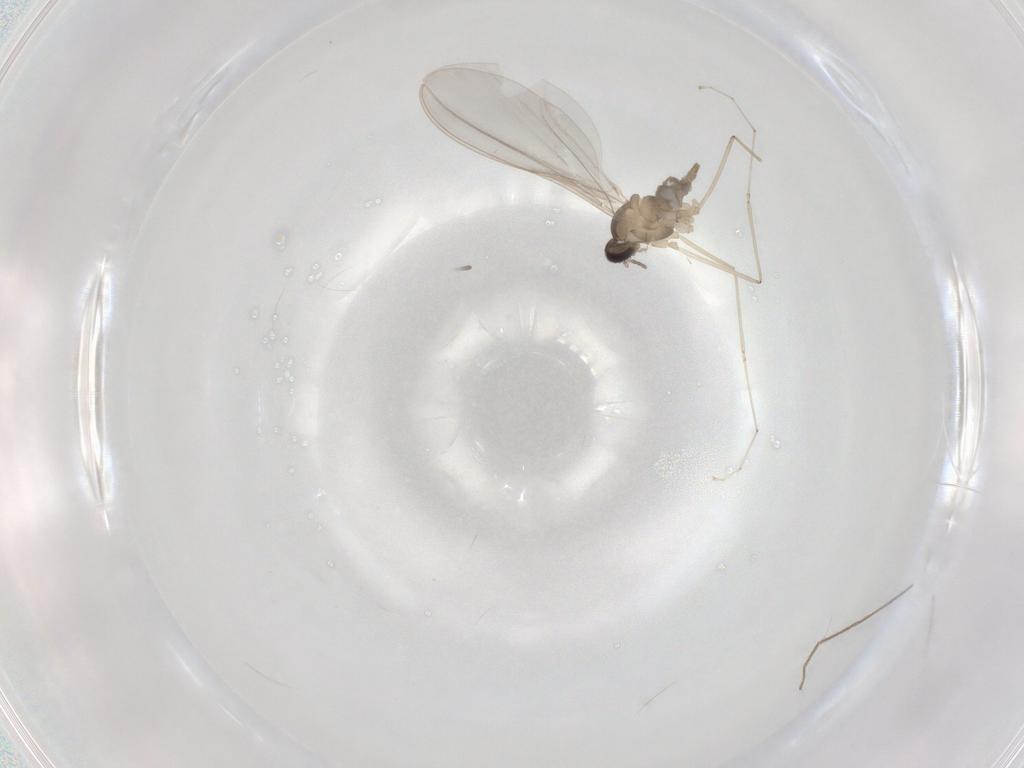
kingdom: Animalia
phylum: Arthropoda
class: Insecta
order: Diptera
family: Cecidomyiidae
